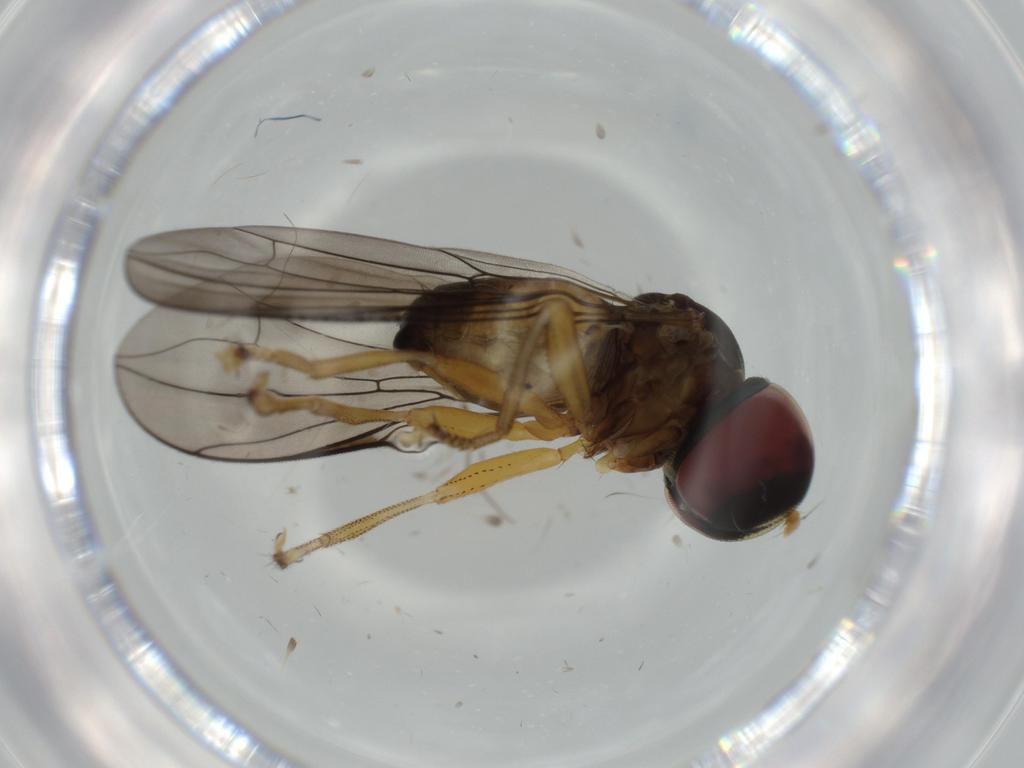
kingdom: Animalia
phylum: Arthropoda
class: Insecta
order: Diptera
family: Pipunculidae
